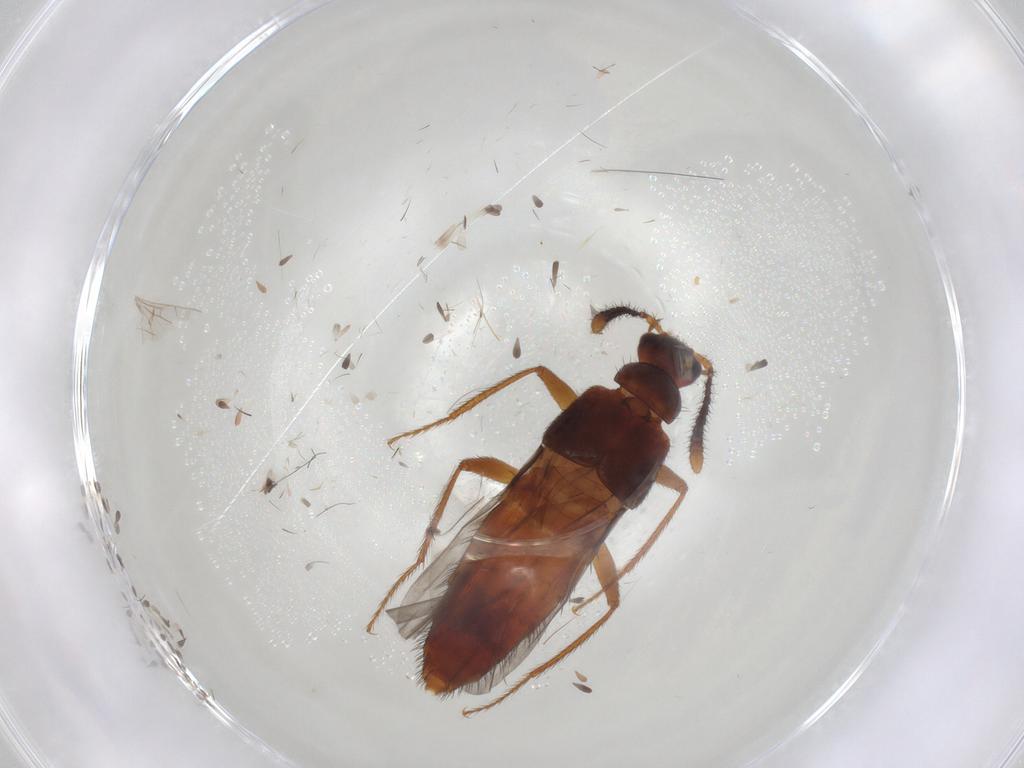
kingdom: Animalia
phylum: Arthropoda
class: Insecta
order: Coleoptera
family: Staphylinidae
